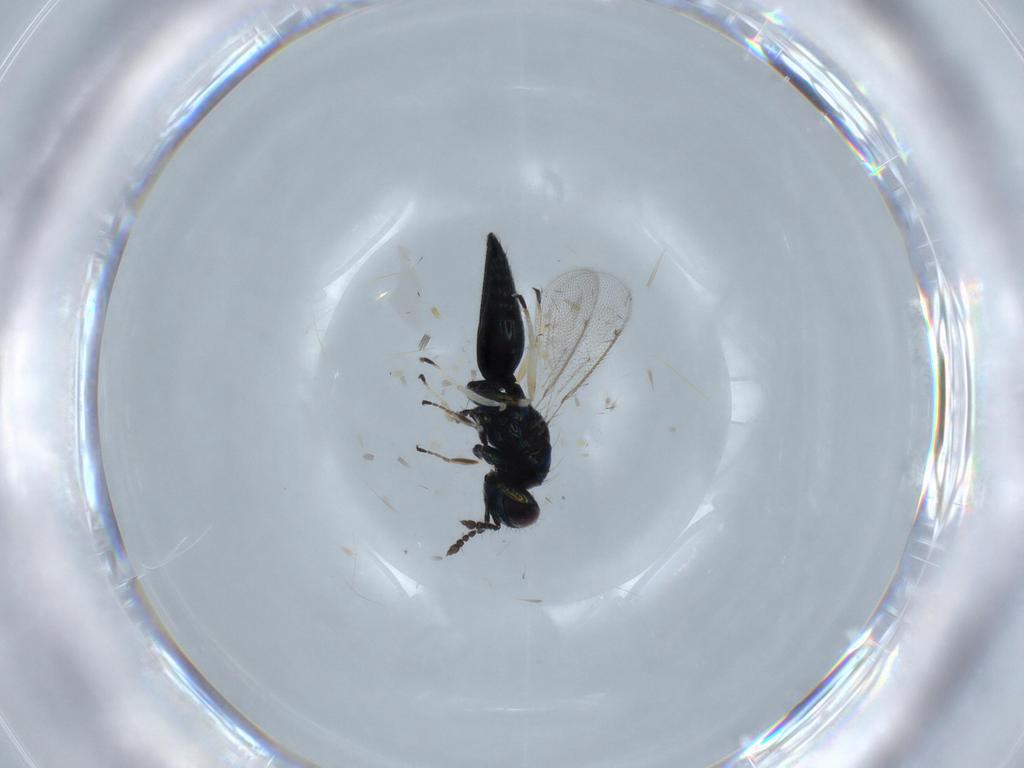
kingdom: Animalia
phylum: Arthropoda
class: Insecta
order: Hymenoptera
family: Eulophidae
